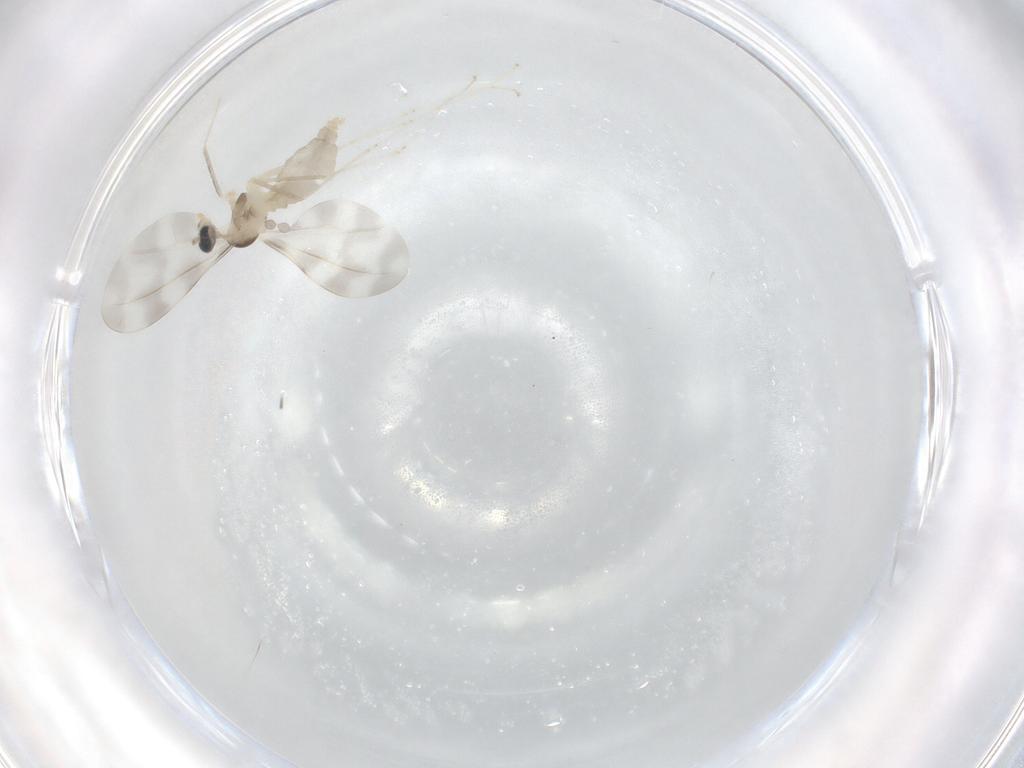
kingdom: Animalia
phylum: Arthropoda
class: Insecta
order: Diptera
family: Cecidomyiidae
